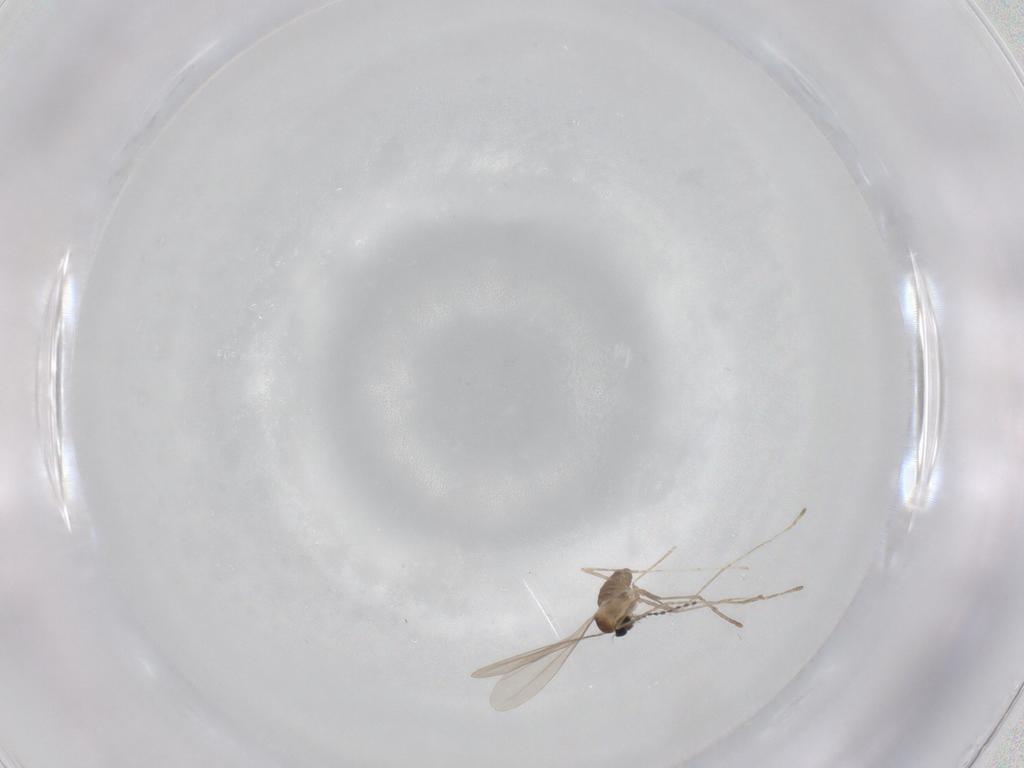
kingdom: Animalia
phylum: Arthropoda
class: Insecta
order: Diptera
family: Cecidomyiidae
